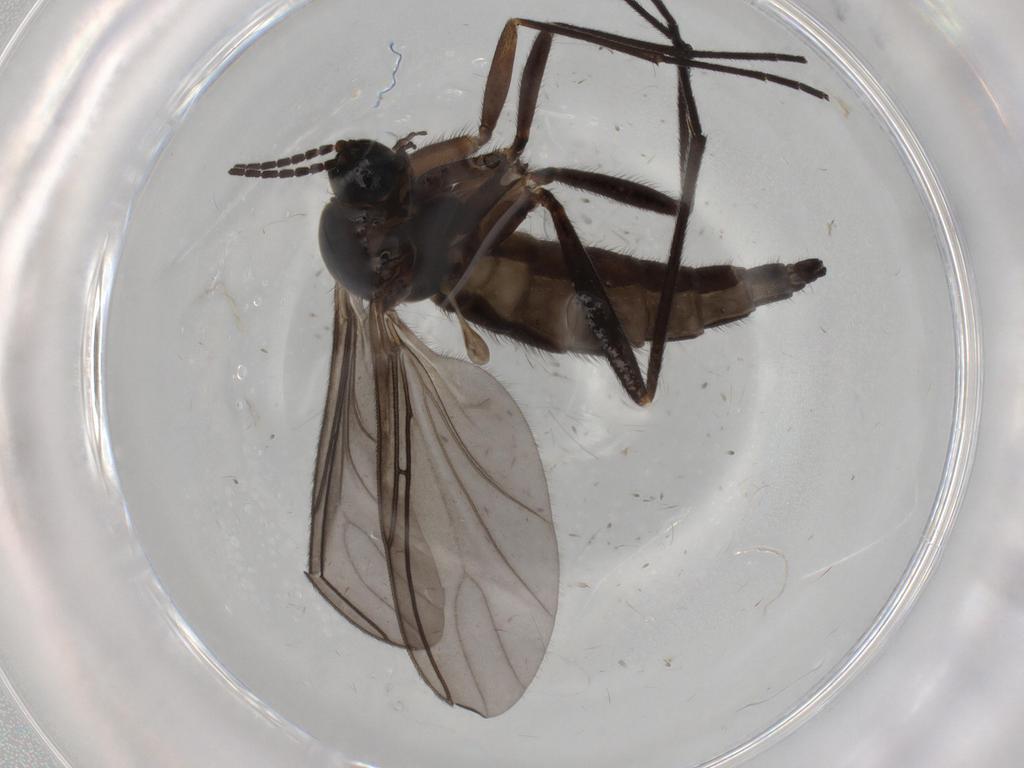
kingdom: Animalia
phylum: Arthropoda
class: Insecta
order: Diptera
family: Sciaridae
